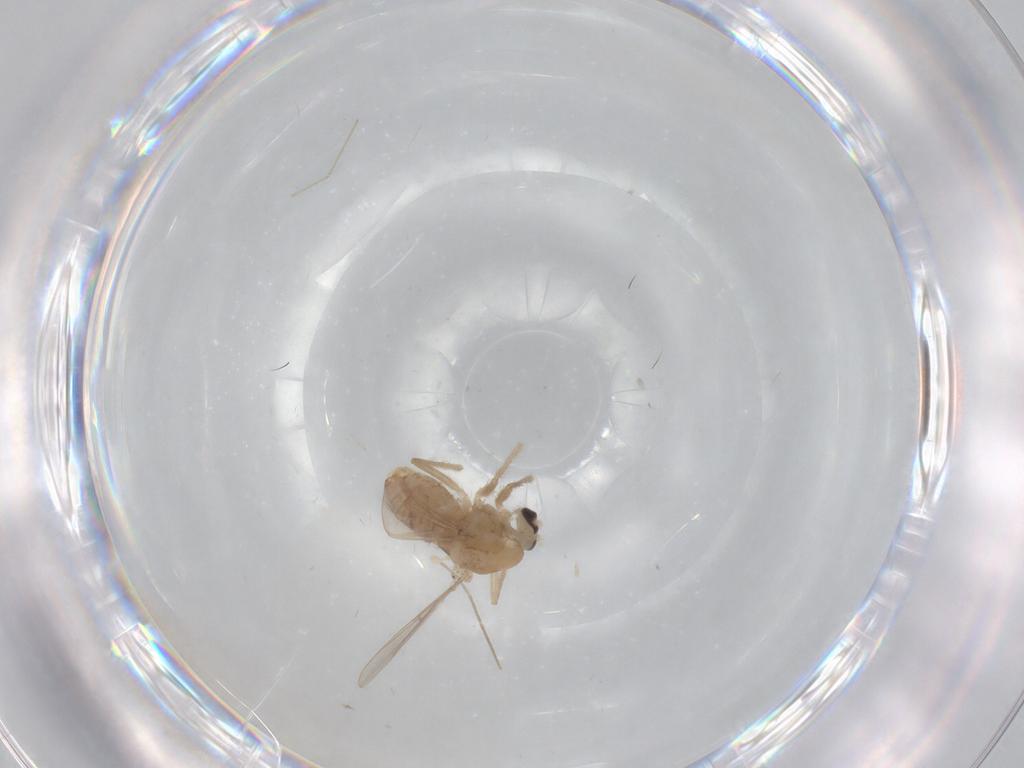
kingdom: Animalia
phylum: Arthropoda
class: Insecta
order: Diptera
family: Chironomidae
